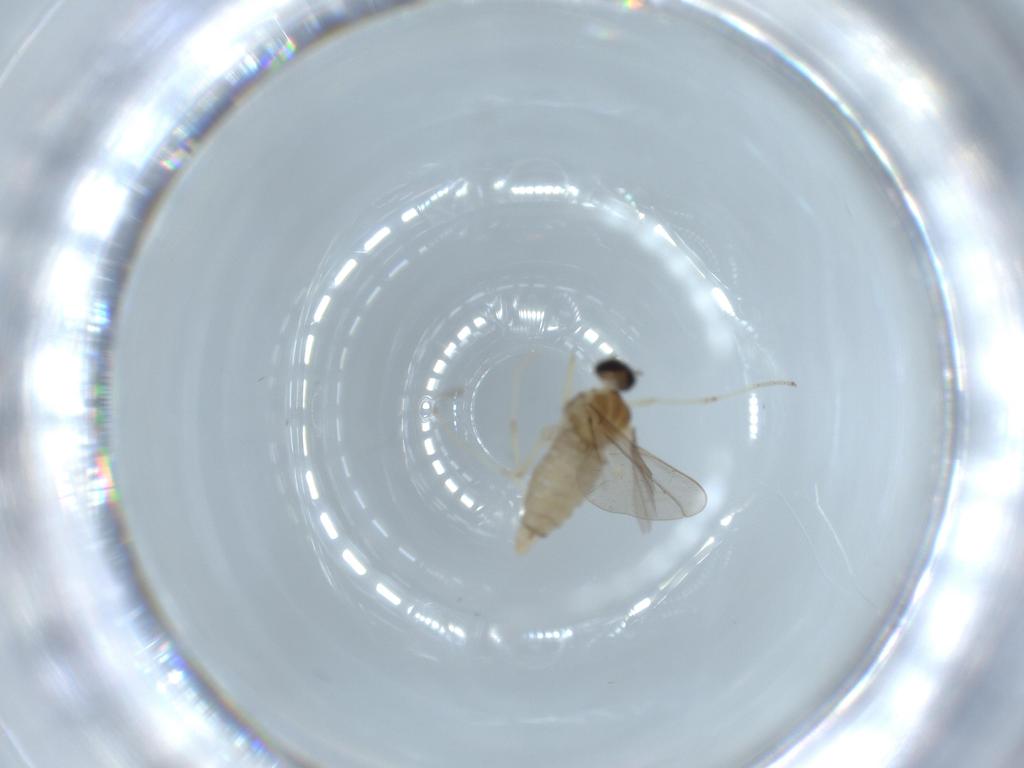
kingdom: Animalia
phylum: Arthropoda
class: Insecta
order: Diptera
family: Cecidomyiidae
